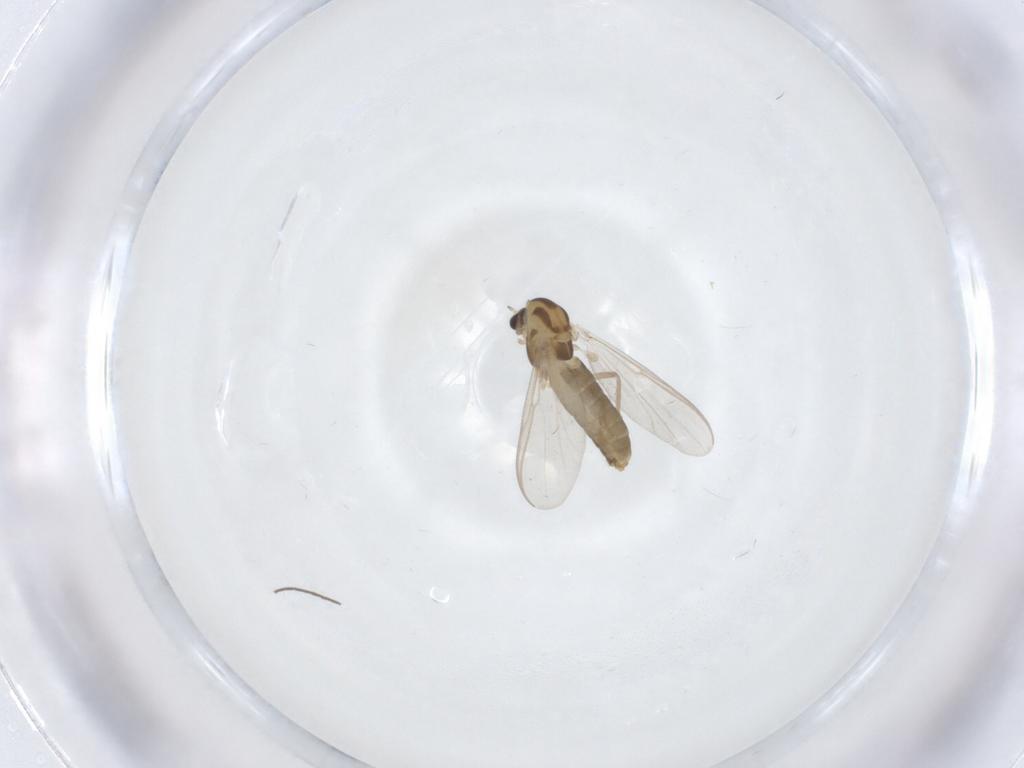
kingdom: Animalia
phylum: Arthropoda
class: Insecta
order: Diptera
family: Chironomidae
